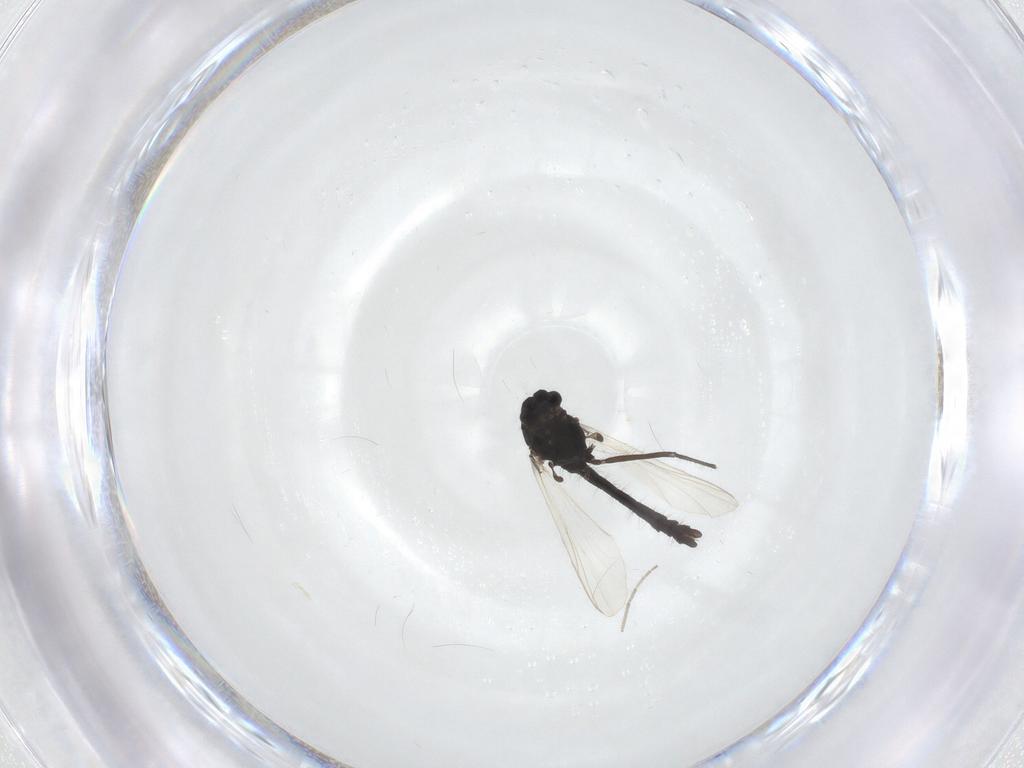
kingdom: Animalia
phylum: Arthropoda
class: Insecta
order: Diptera
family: Chironomidae
